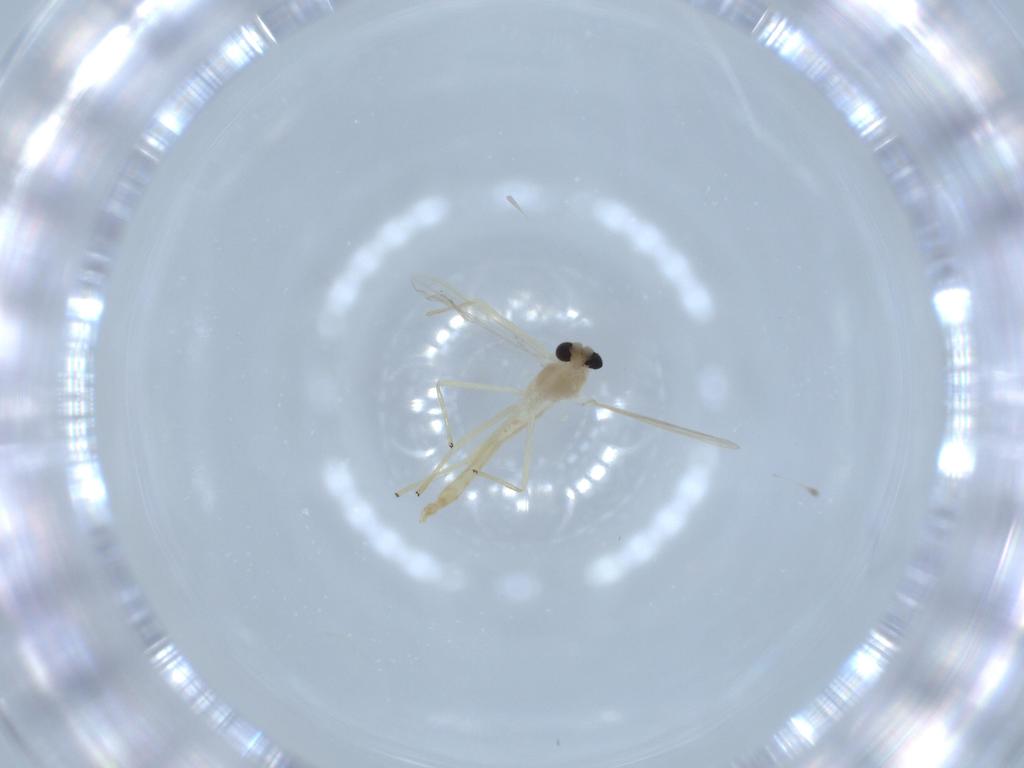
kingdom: Animalia
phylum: Arthropoda
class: Insecta
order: Diptera
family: Chironomidae
